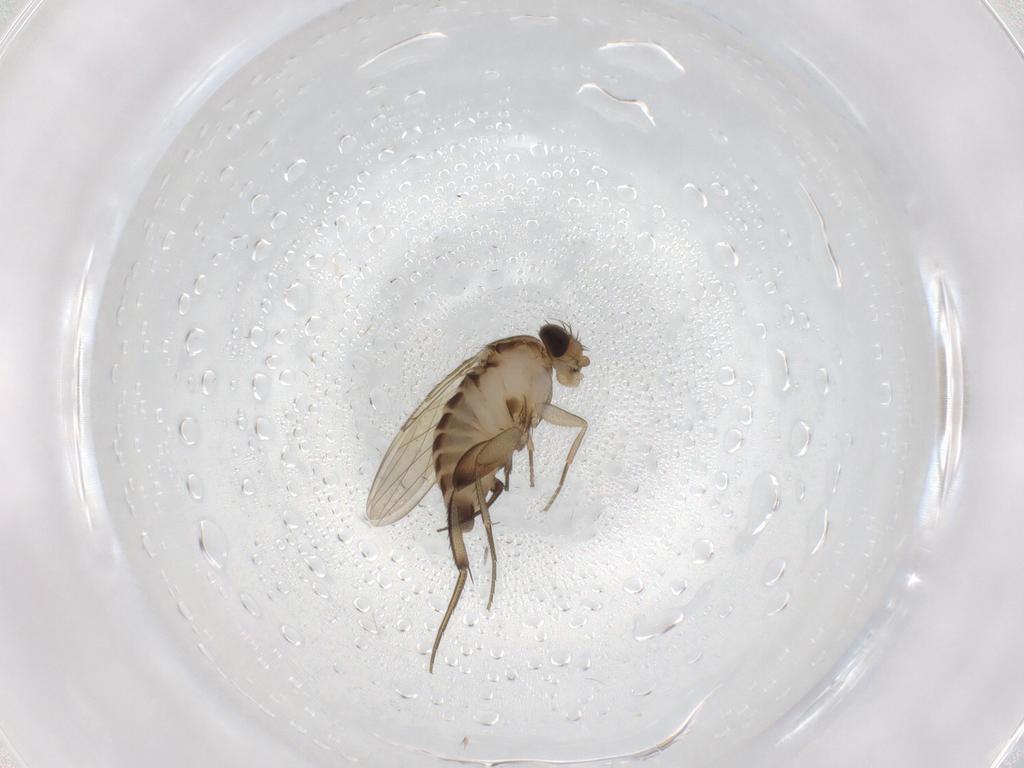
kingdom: Animalia
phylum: Arthropoda
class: Insecta
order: Diptera
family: Phoridae
